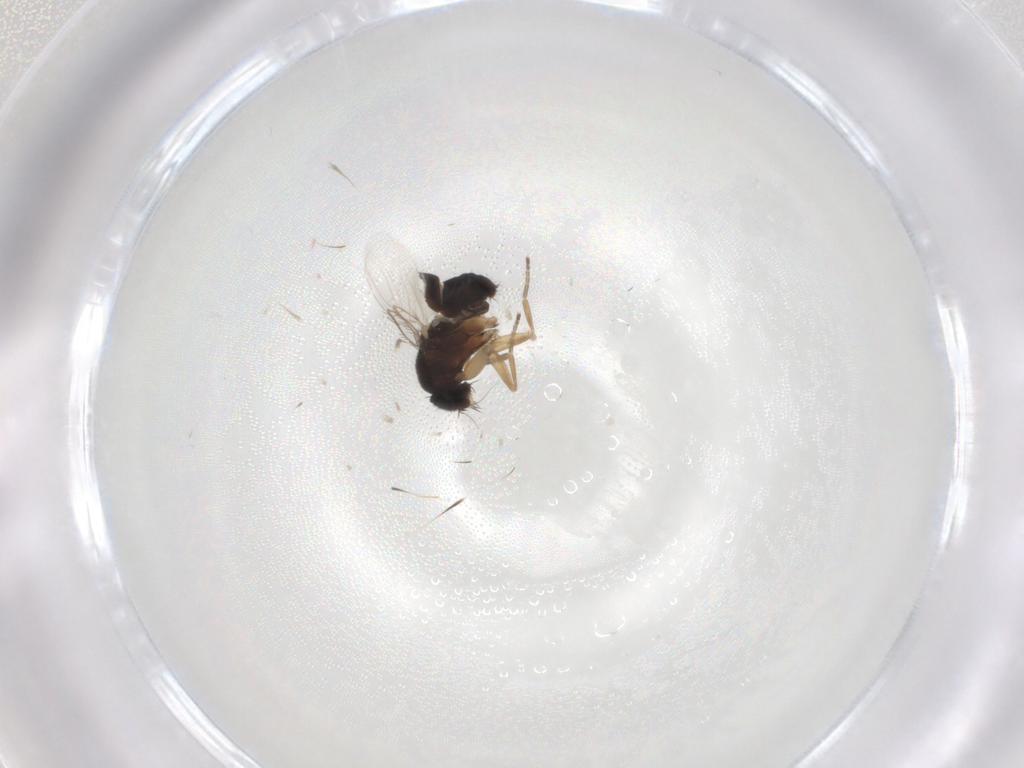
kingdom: Animalia
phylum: Arthropoda
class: Insecta
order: Diptera
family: Phoridae
